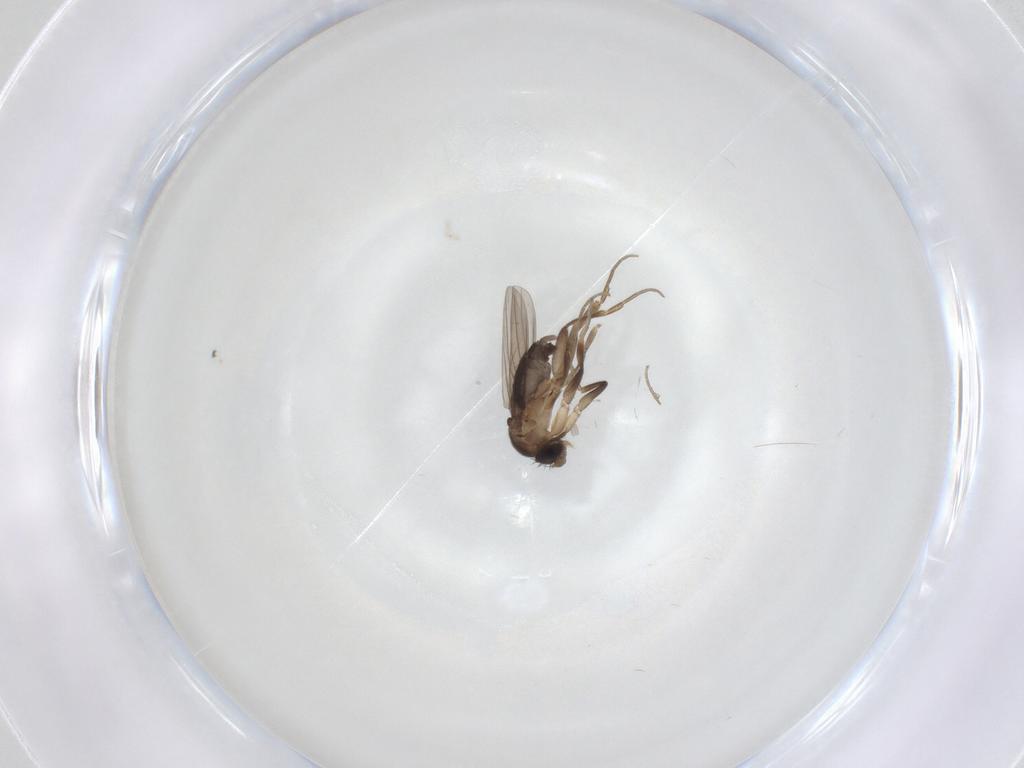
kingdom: Animalia
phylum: Arthropoda
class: Insecta
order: Diptera
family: Phoridae
